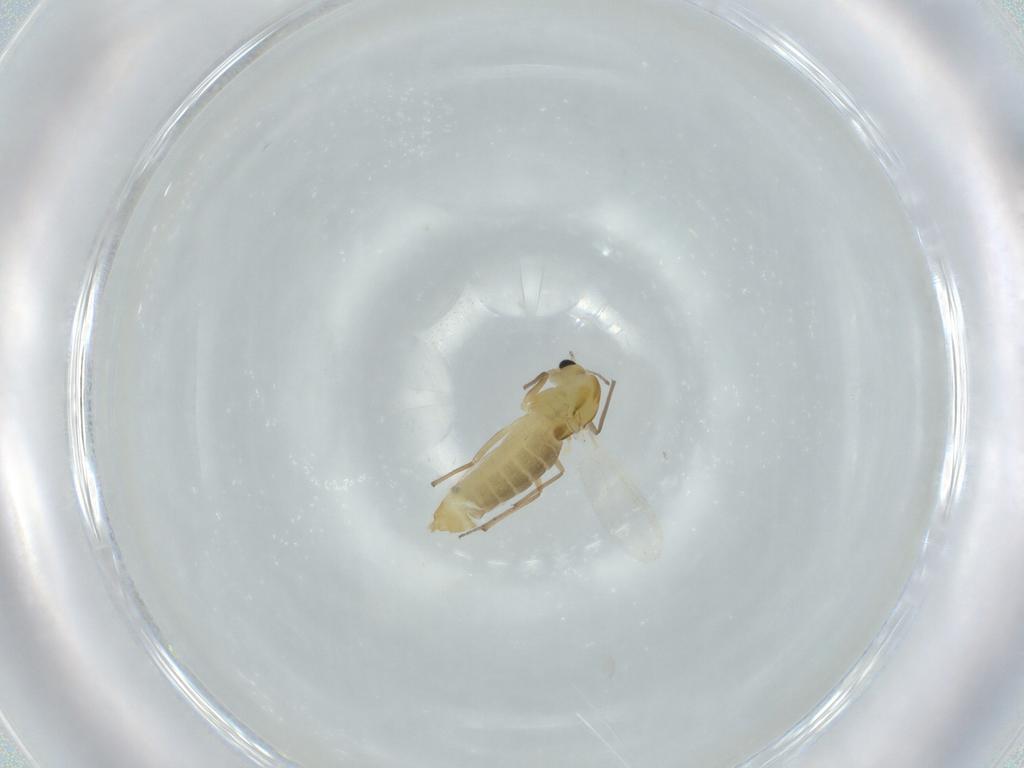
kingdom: Animalia
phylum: Arthropoda
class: Insecta
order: Diptera
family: Chironomidae
